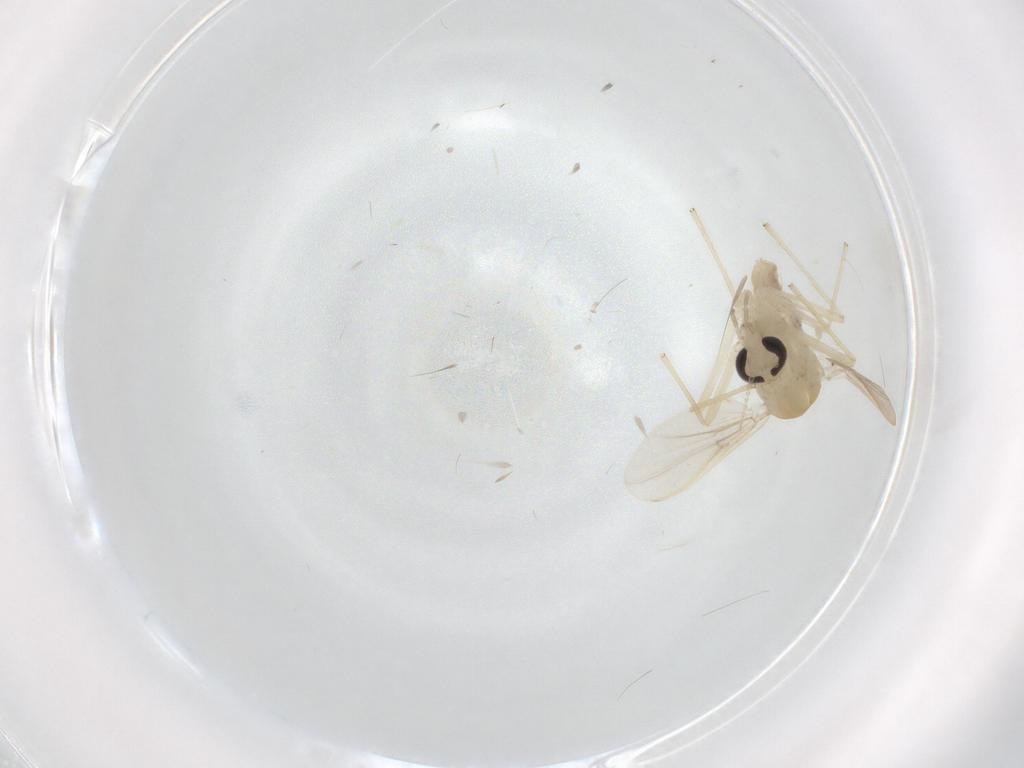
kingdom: Animalia
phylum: Arthropoda
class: Insecta
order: Diptera
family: Chironomidae
